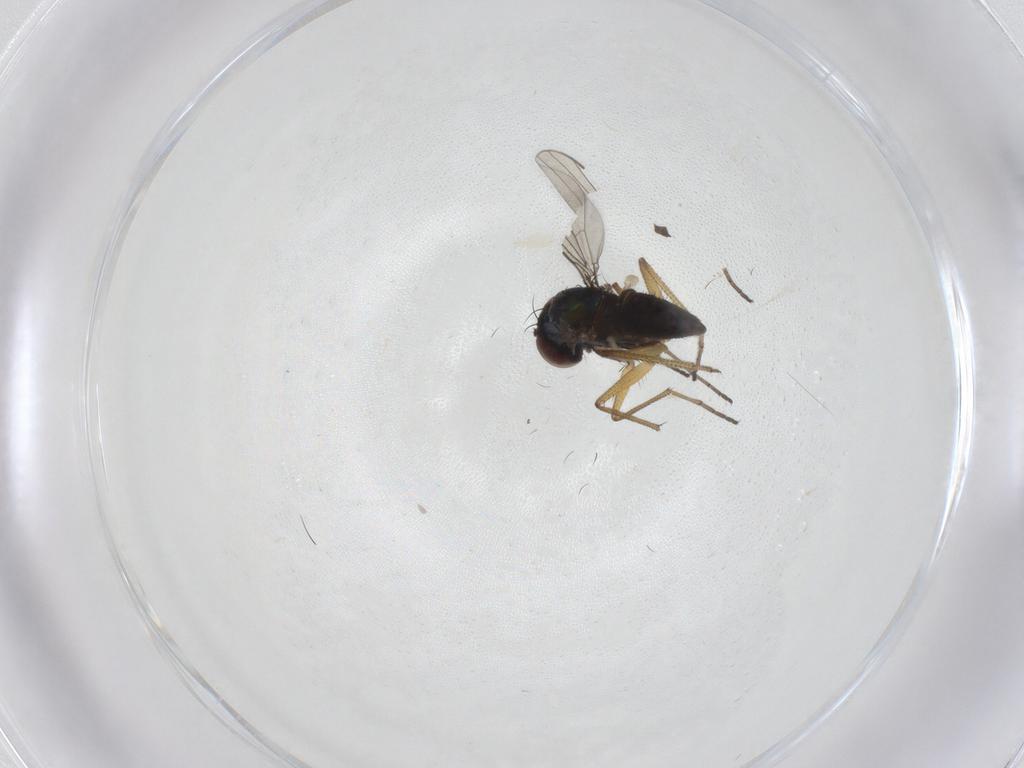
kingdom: Animalia
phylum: Arthropoda
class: Insecta
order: Diptera
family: Dolichopodidae
